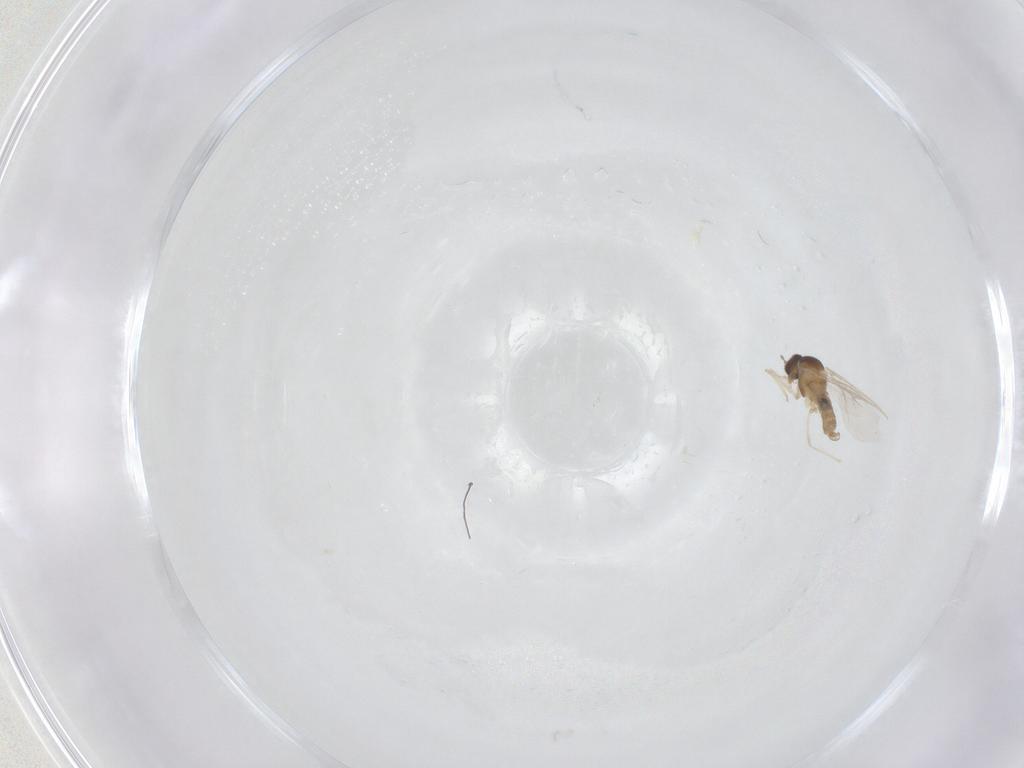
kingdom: Animalia
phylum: Arthropoda
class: Insecta
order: Diptera
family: Cecidomyiidae
